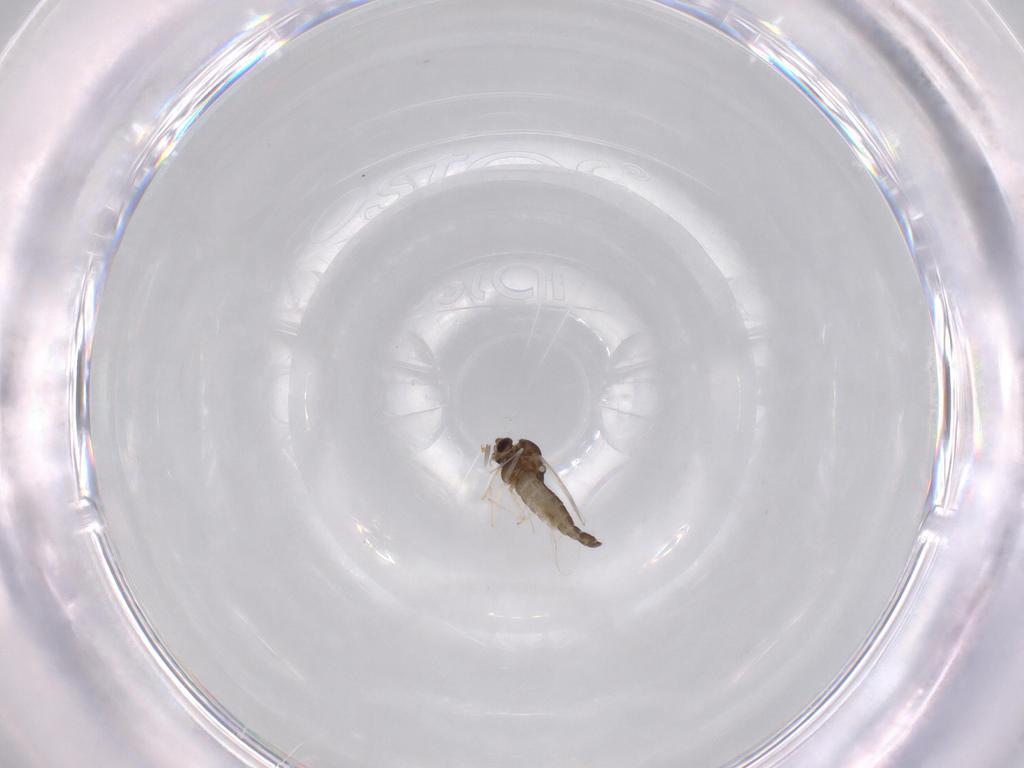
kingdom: Animalia
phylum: Arthropoda
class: Insecta
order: Diptera
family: Chironomidae
